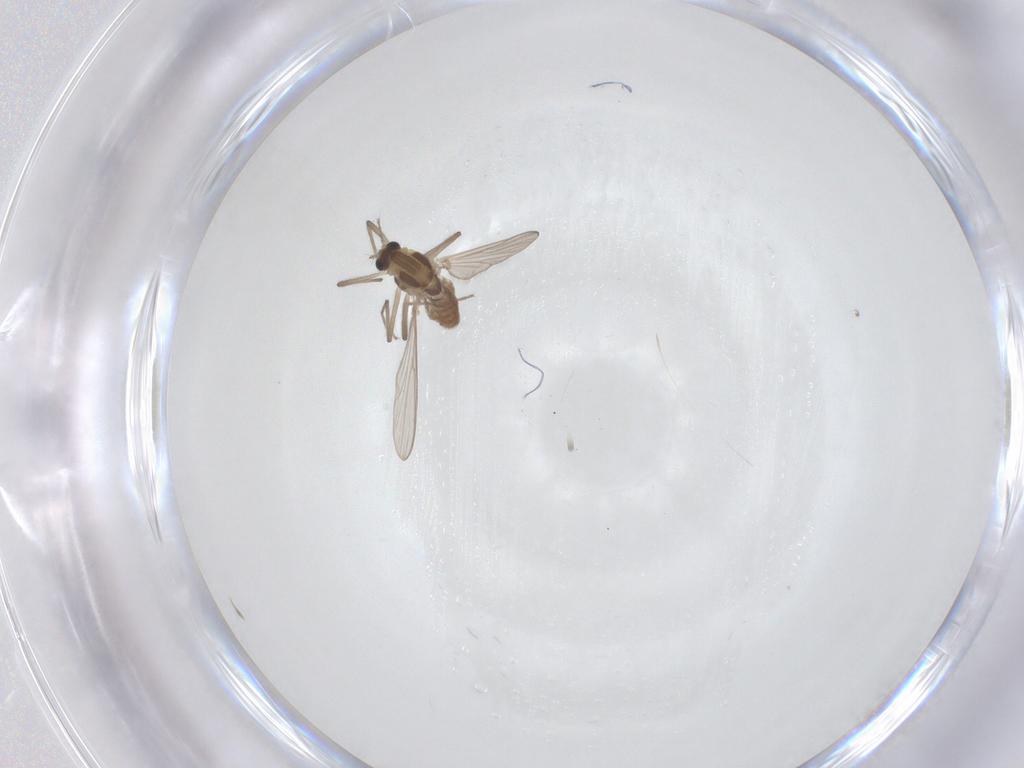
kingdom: Animalia
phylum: Arthropoda
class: Insecta
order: Diptera
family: Chironomidae
